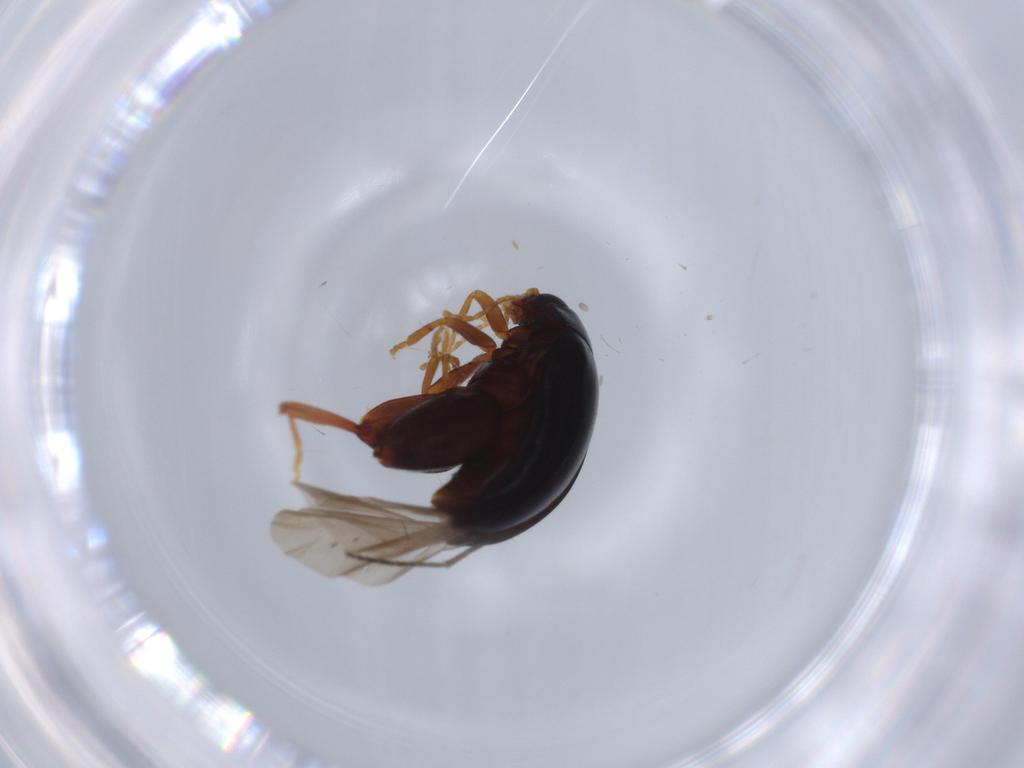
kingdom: Animalia
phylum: Arthropoda
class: Insecta
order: Coleoptera
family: Chrysomelidae
